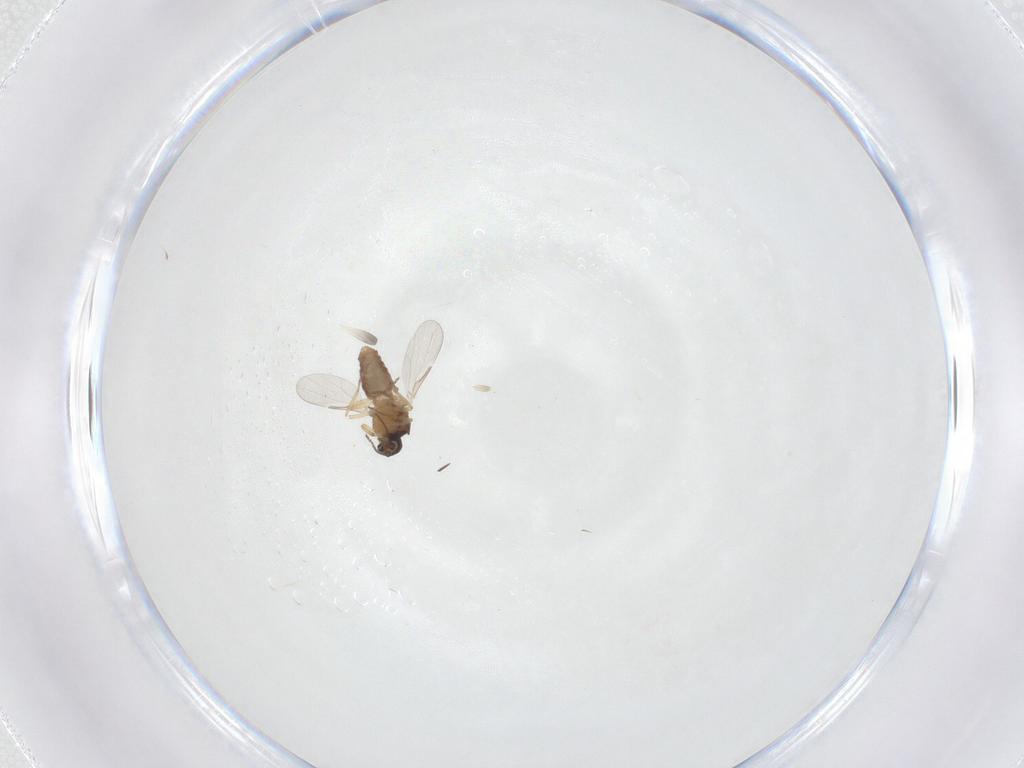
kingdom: Animalia
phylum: Arthropoda
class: Insecta
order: Diptera
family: Ceratopogonidae
